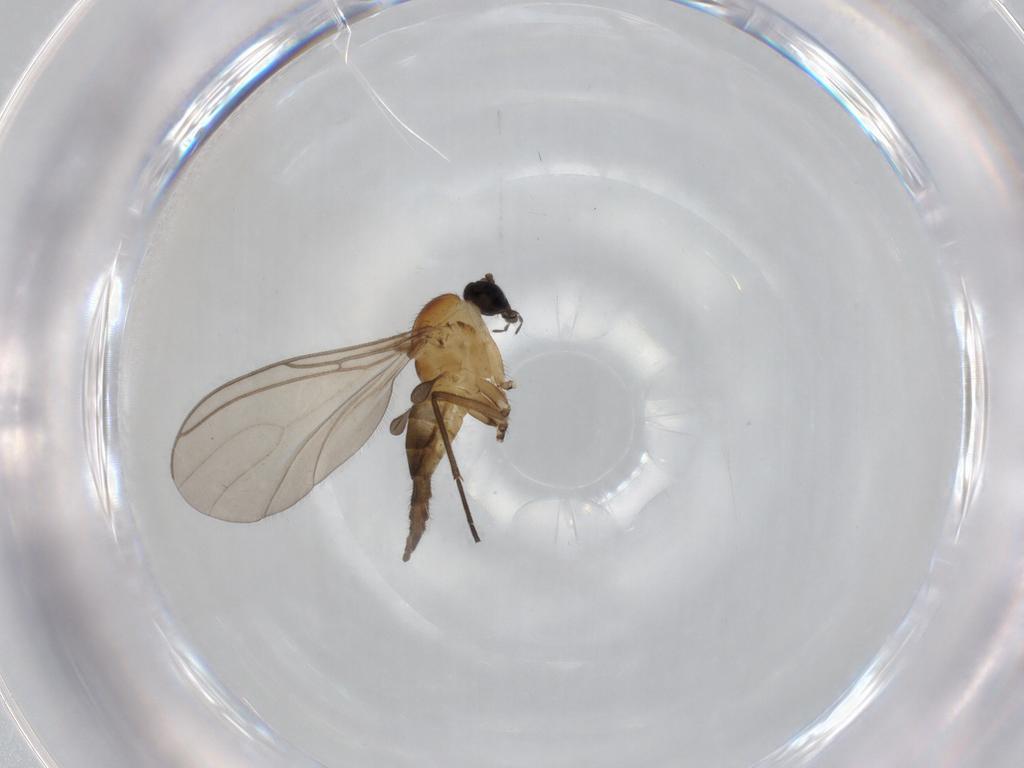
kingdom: Animalia
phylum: Arthropoda
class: Insecta
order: Diptera
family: Sciaridae
